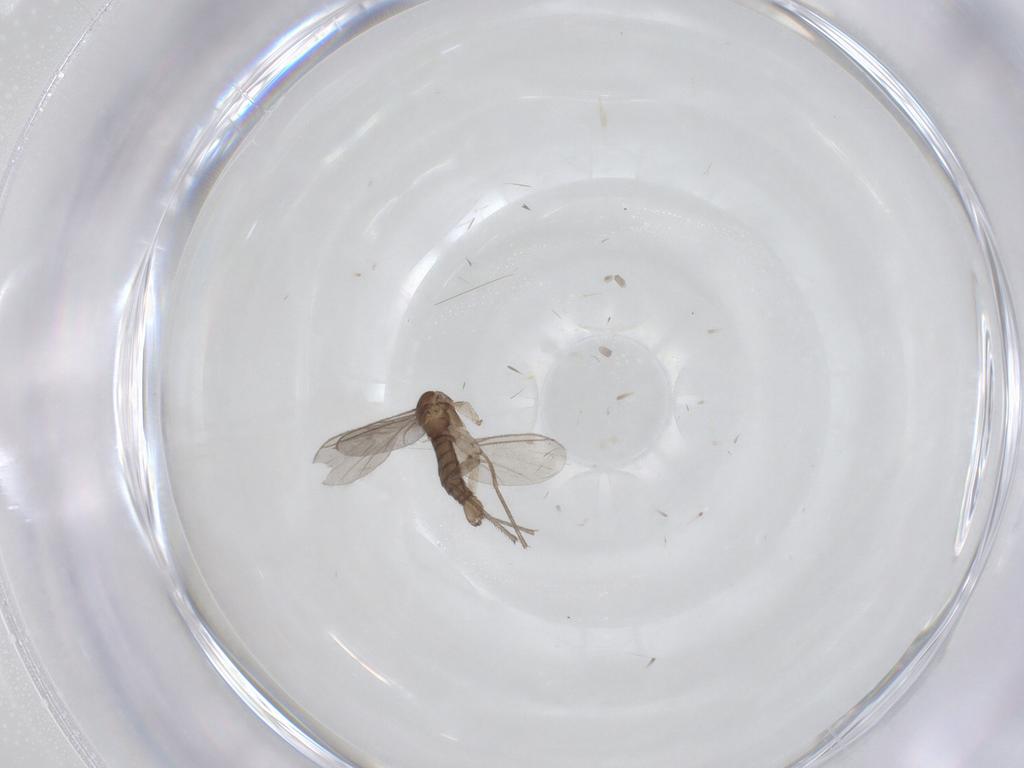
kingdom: Animalia
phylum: Arthropoda
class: Insecta
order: Diptera
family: Sciaridae
